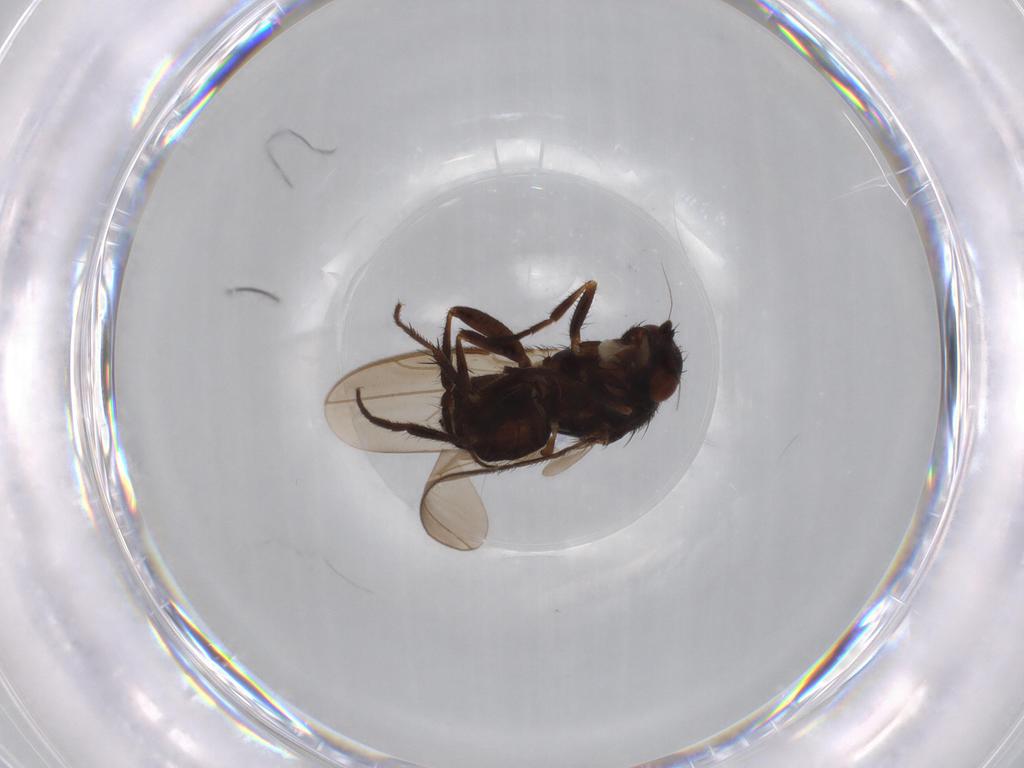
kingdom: Animalia
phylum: Arthropoda
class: Insecta
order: Diptera
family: Sphaeroceridae
